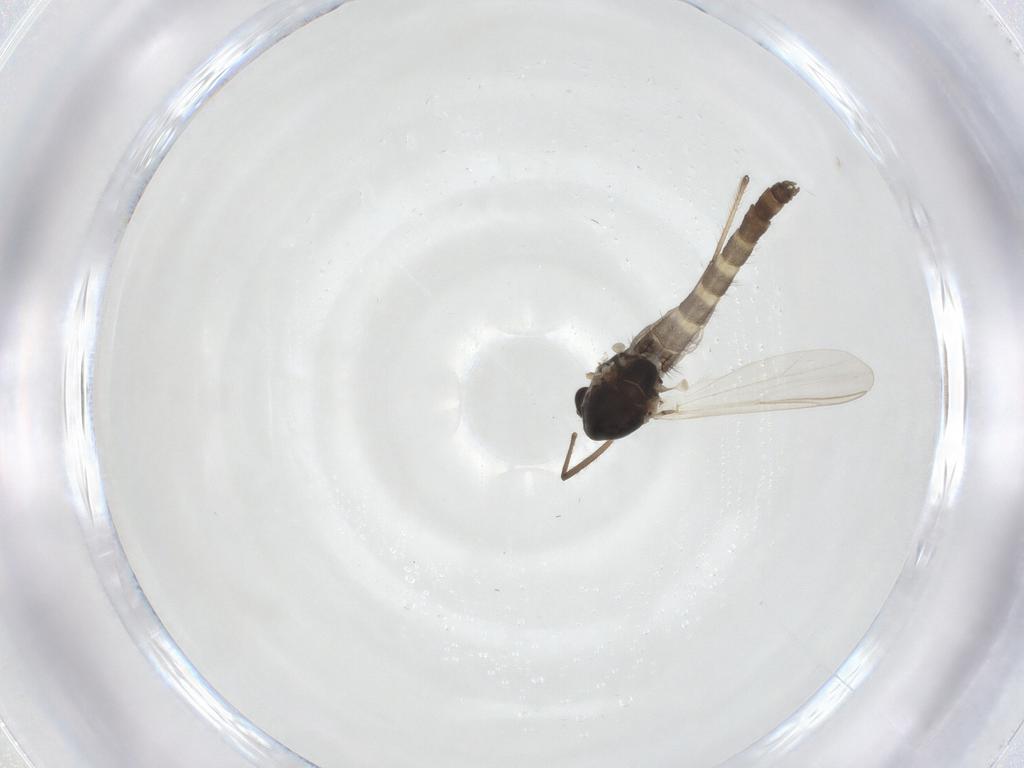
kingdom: Animalia
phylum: Arthropoda
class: Insecta
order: Diptera
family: Chironomidae
